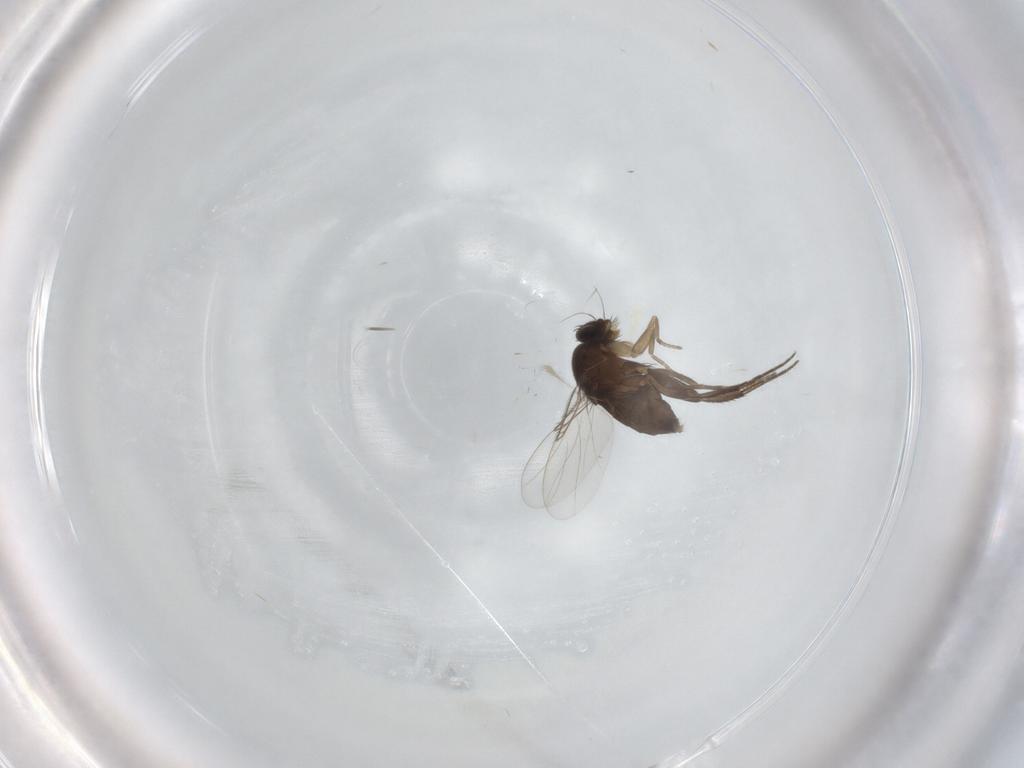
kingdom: Animalia
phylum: Arthropoda
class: Insecta
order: Diptera
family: Phoridae
